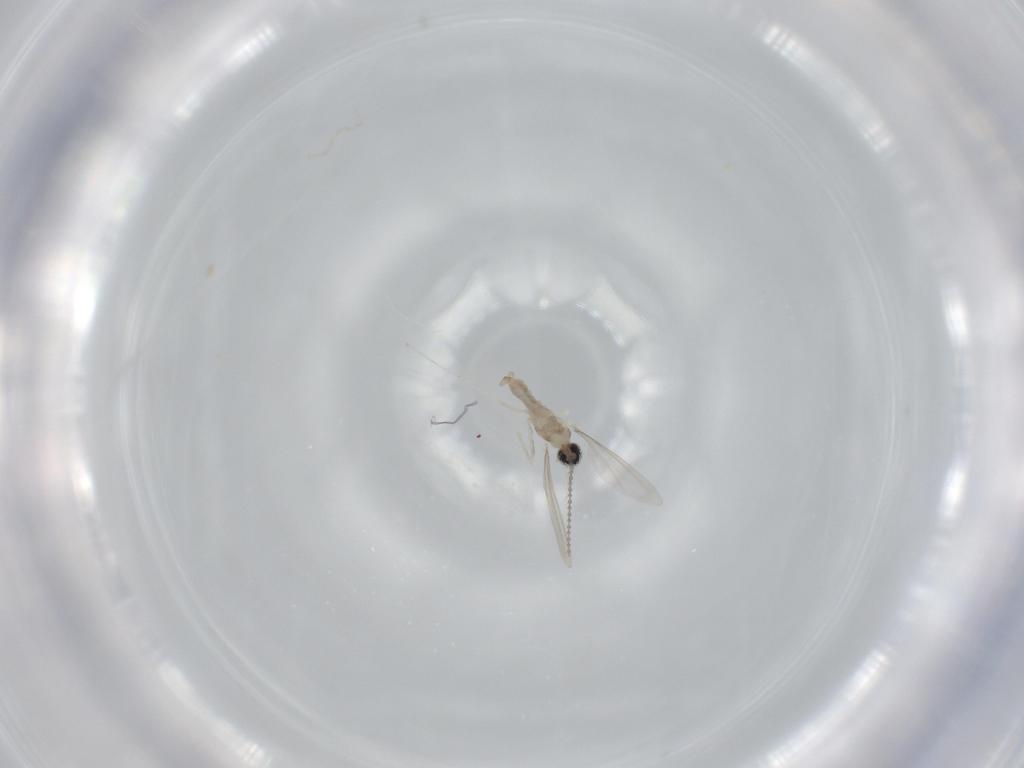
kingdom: Animalia
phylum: Arthropoda
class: Insecta
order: Diptera
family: Cecidomyiidae
